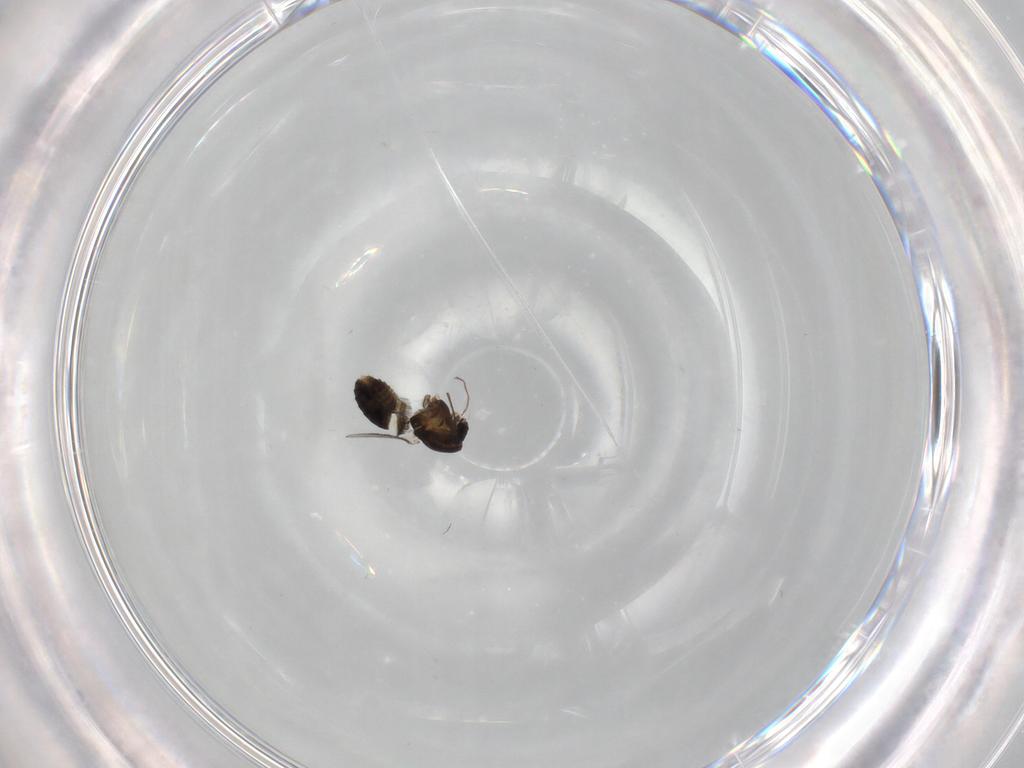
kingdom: Animalia
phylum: Arthropoda
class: Insecta
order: Diptera
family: Chironomidae
